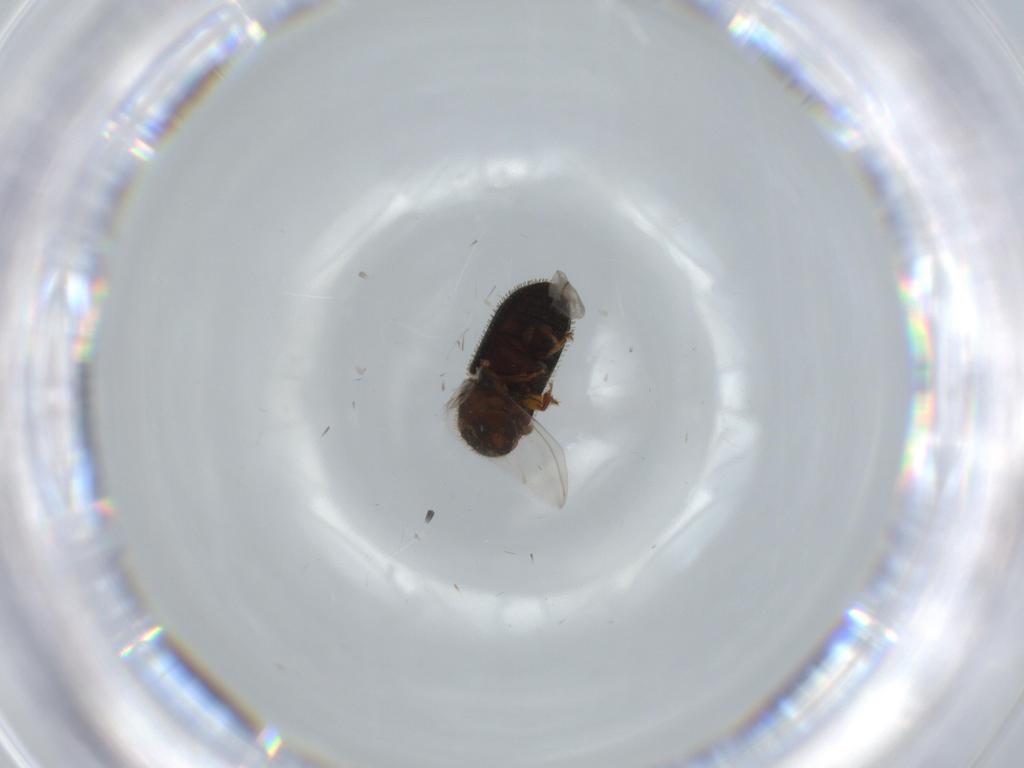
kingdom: Animalia
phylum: Arthropoda
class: Insecta
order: Coleoptera
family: Curculionidae
